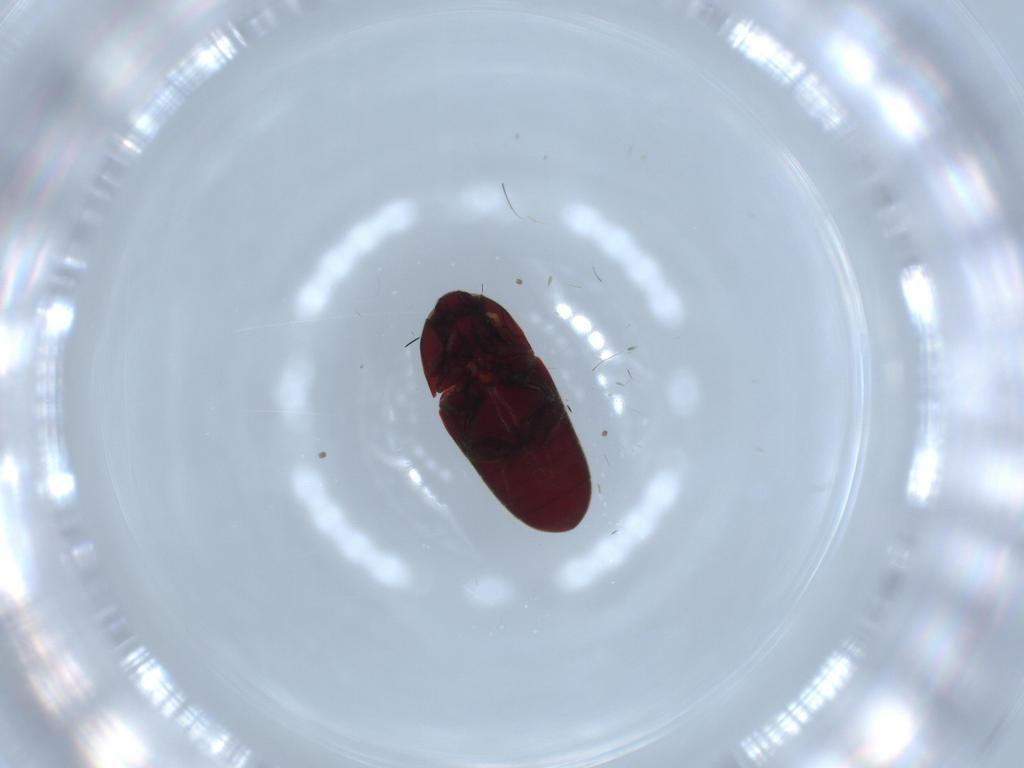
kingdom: Animalia
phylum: Arthropoda
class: Insecta
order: Coleoptera
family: Throscidae
